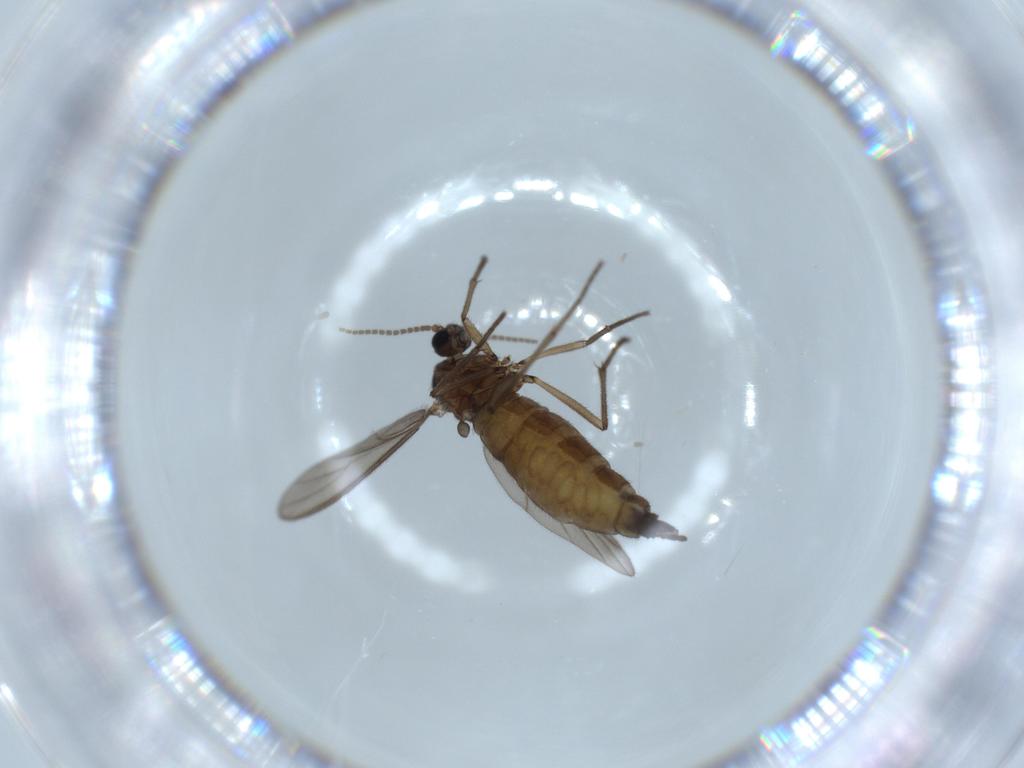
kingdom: Animalia
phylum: Arthropoda
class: Insecta
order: Diptera
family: Sciaridae
